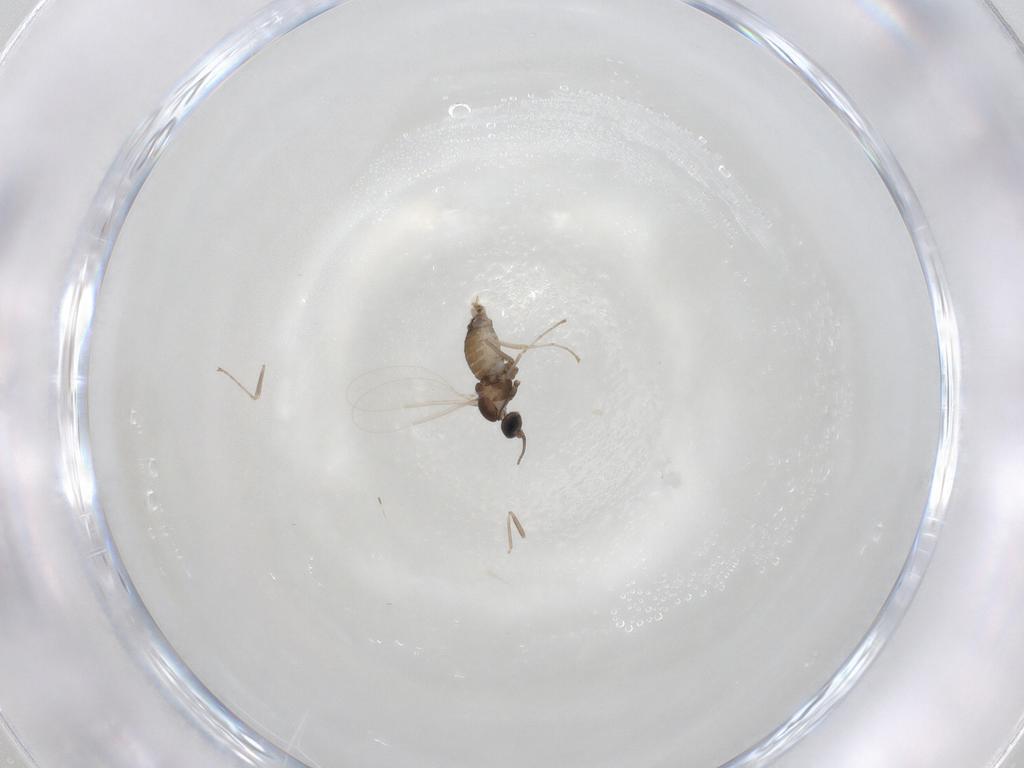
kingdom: Animalia
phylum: Arthropoda
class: Insecta
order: Diptera
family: Cecidomyiidae
